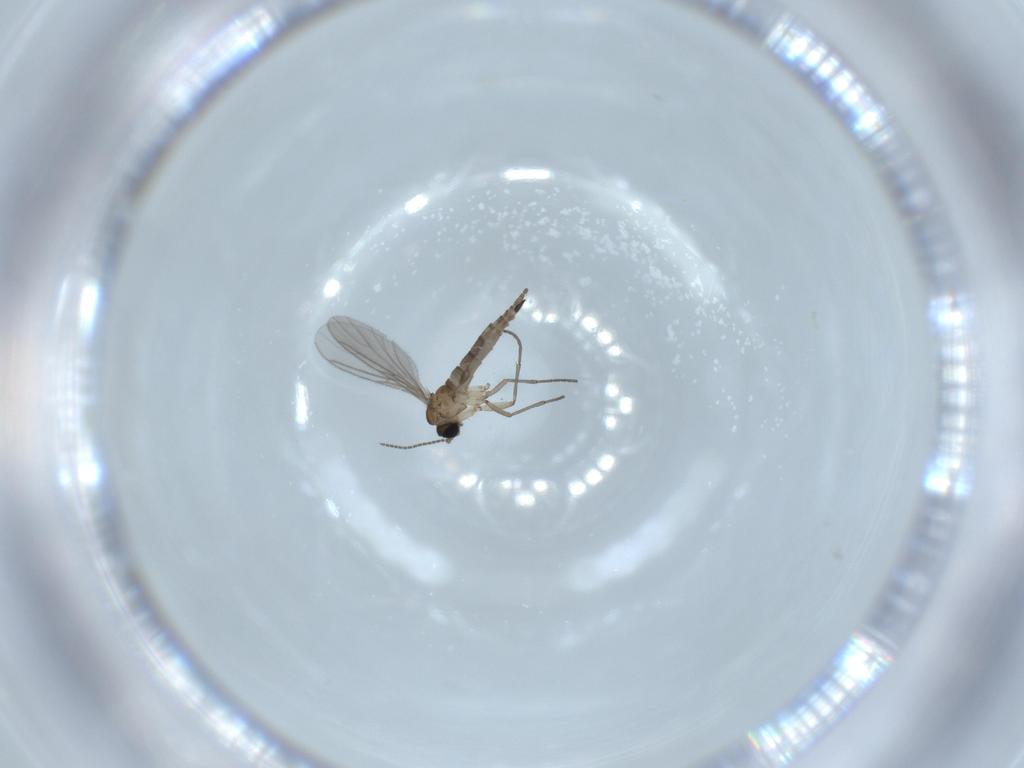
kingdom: Animalia
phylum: Arthropoda
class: Insecta
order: Diptera
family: Sciaridae
